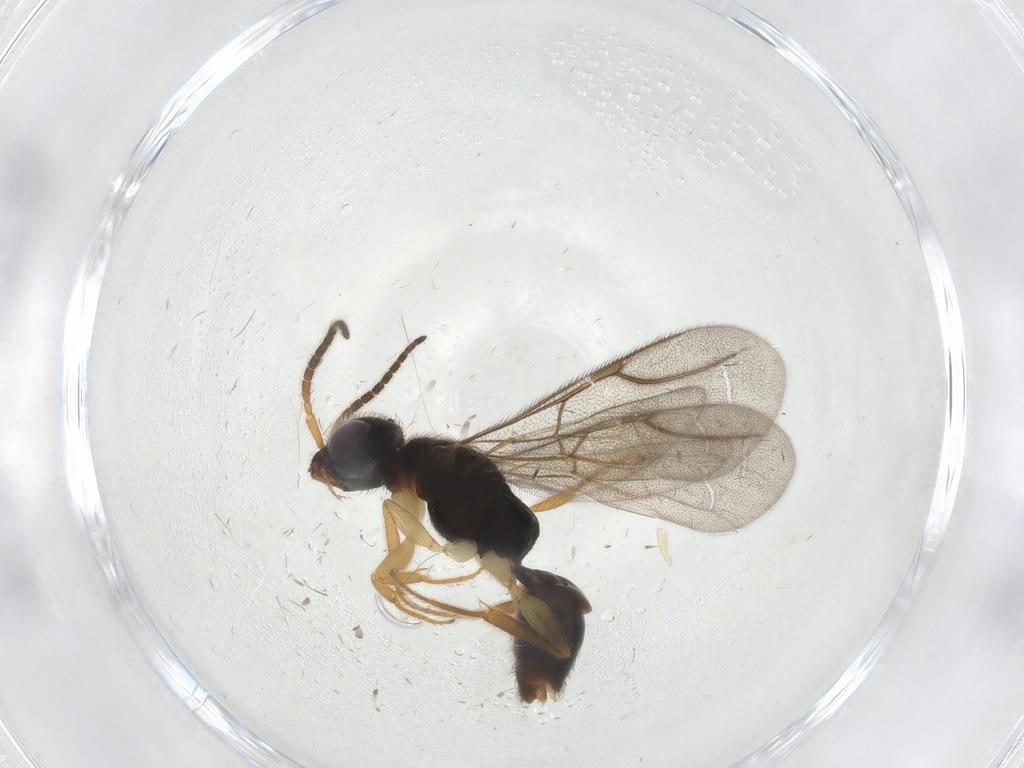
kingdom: Animalia
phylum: Arthropoda
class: Insecta
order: Hymenoptera
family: Bethylidae
